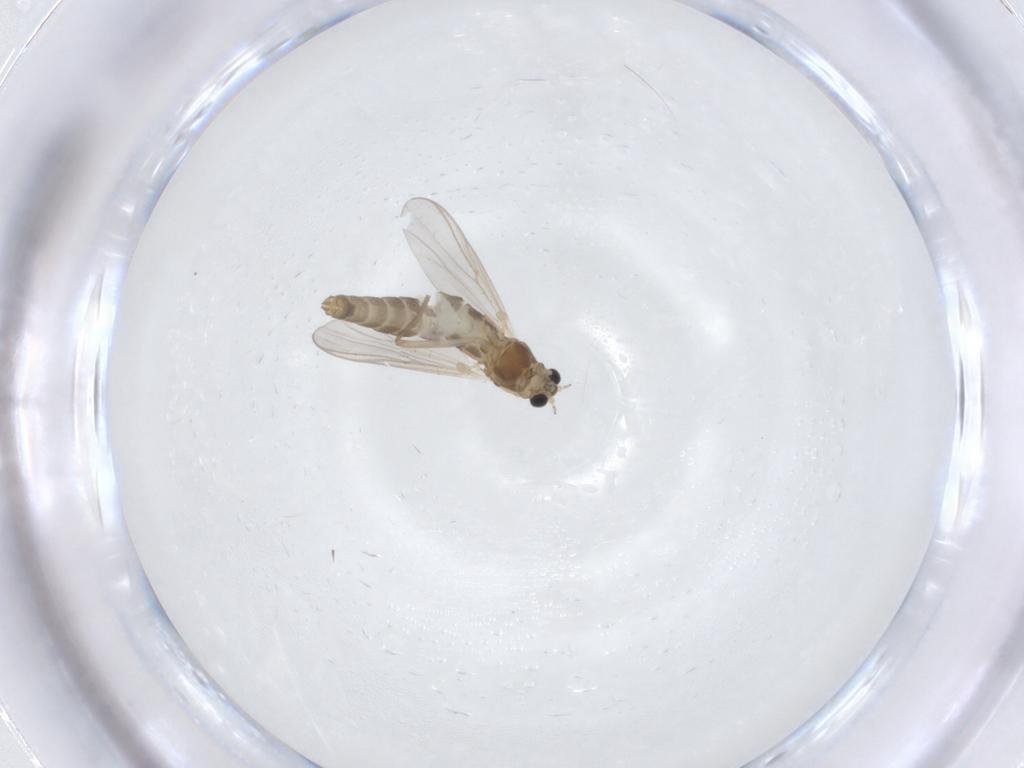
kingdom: Animalia
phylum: Arthropoda
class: Insecta
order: Diptera
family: Chironomidae
